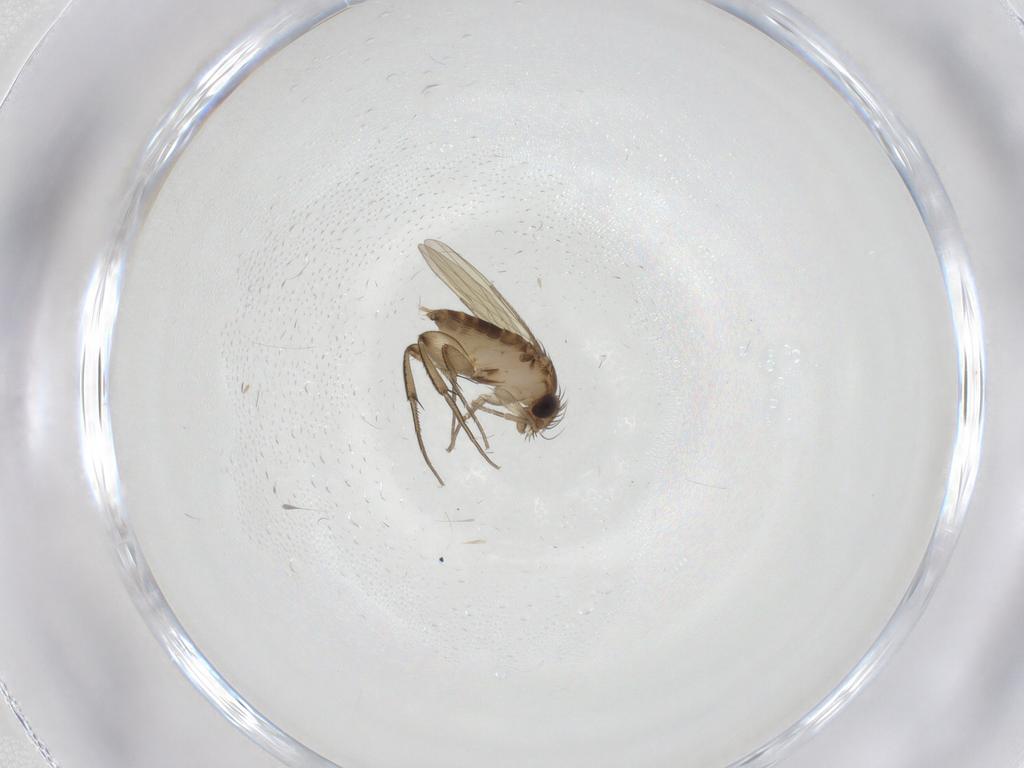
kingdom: Animalia
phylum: Arthropoda
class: Insecta
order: Diptera
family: Phoridae
